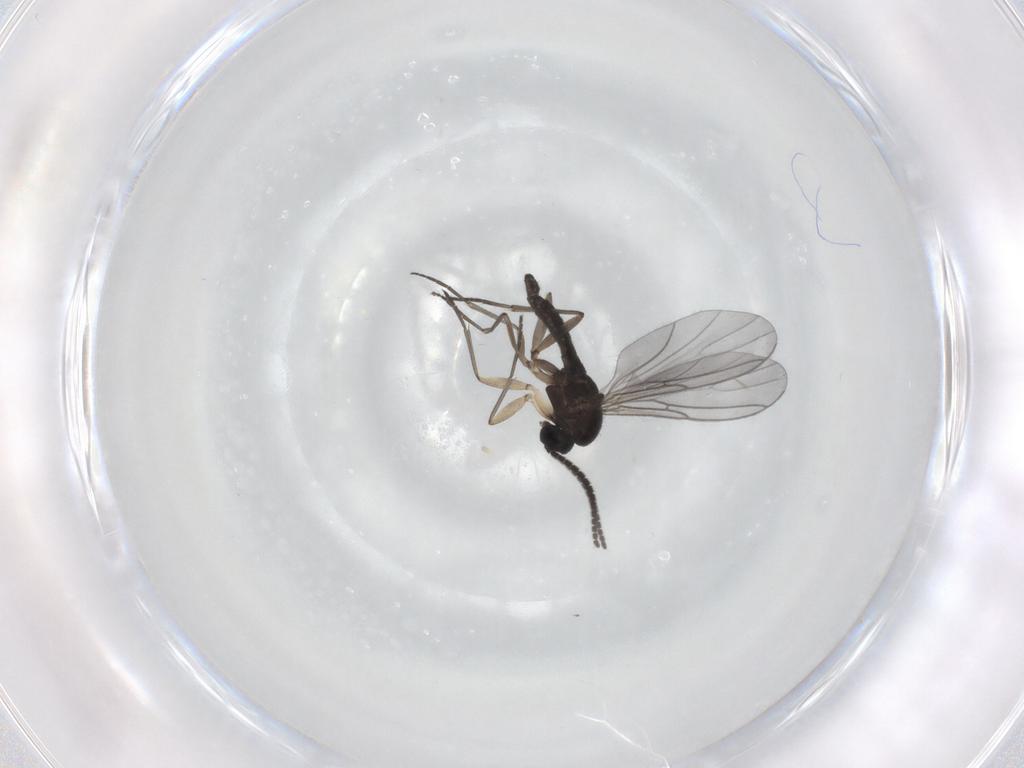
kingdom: Animalia
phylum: Arthropoda
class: Insecta
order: Diptera
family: Sciaridae
